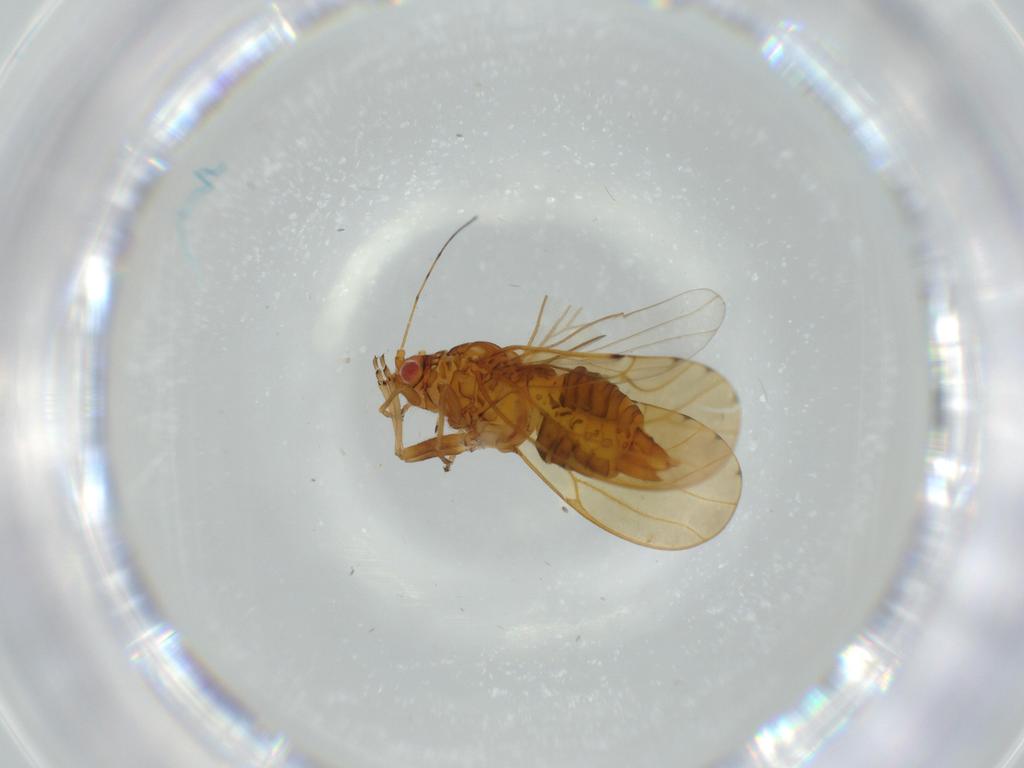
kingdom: Animalia
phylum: Arthropoda
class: Insecta
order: Hemiptera
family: Psylloidea_incertae_sedis
